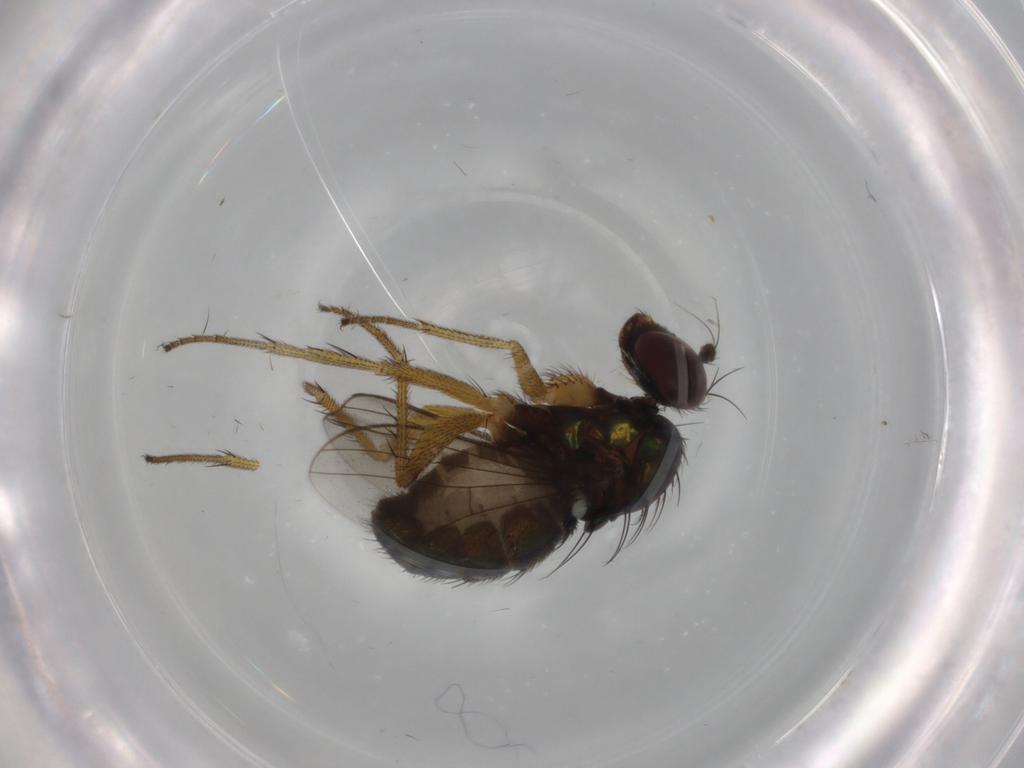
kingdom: Animalia
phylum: Arthropoda
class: Insecta
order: Diptera
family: Dolichopodidae
